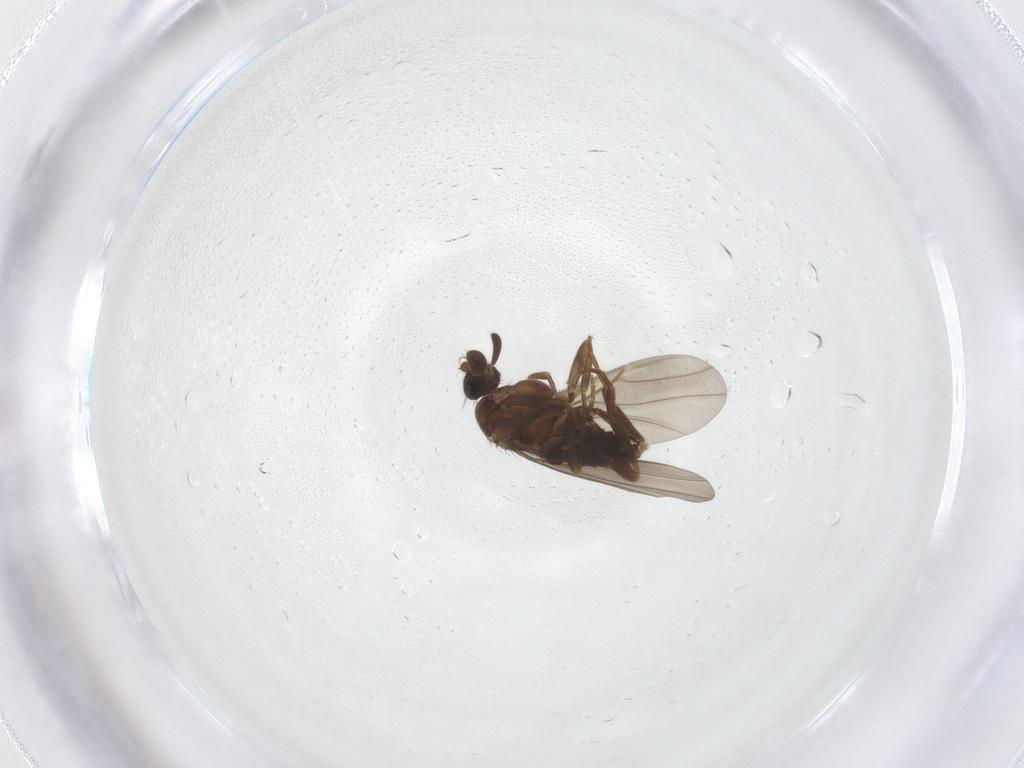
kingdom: Animalia
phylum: Arthropoda
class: Insecta
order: Diptera
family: Phoridae
